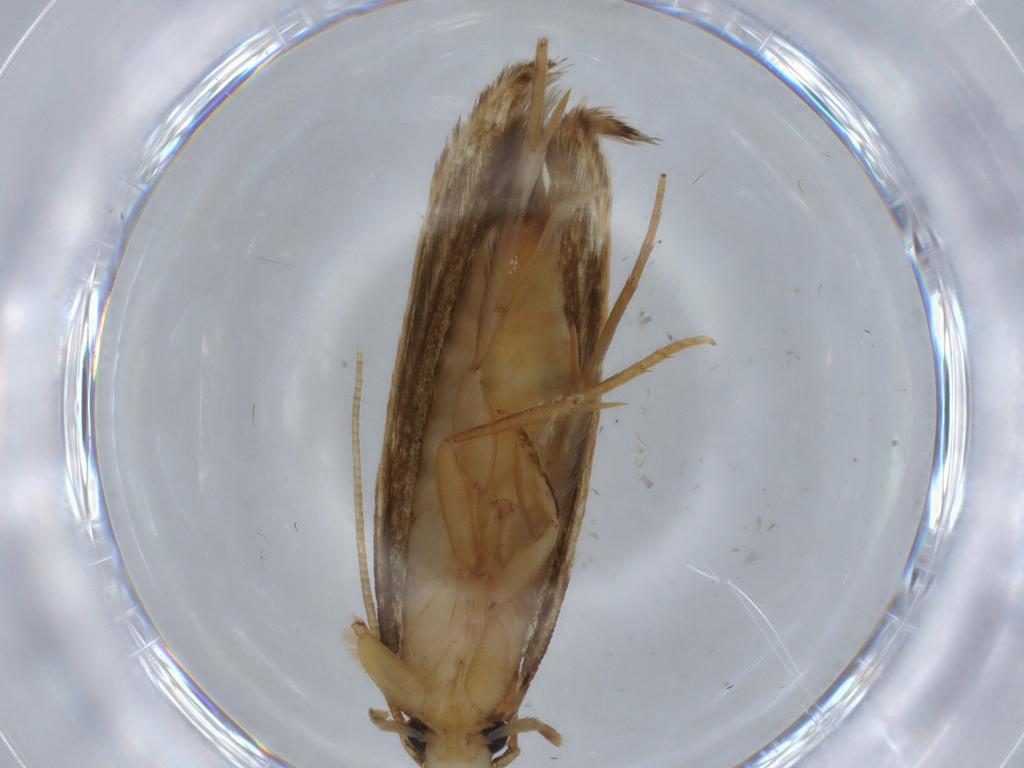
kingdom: Animalia
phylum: Arthropoda
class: Insecta
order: Lepidoptera
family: Tineidae
